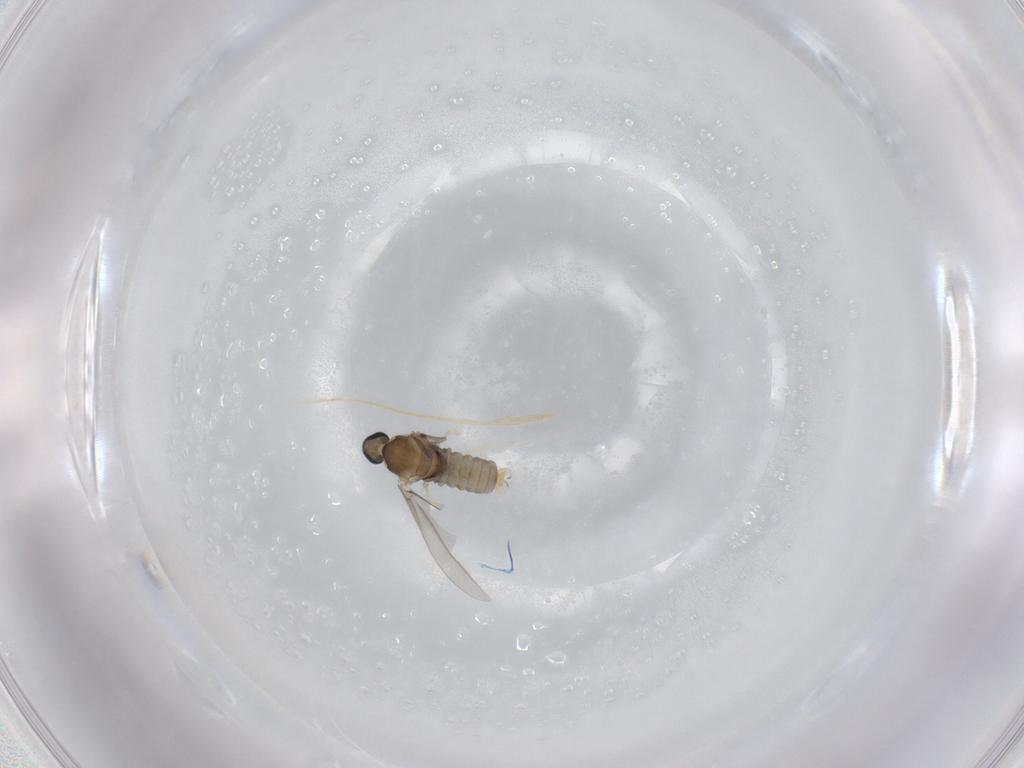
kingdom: Animalia
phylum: Arthropoda
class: Insecta
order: Diptera
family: Cecidomyiidae
